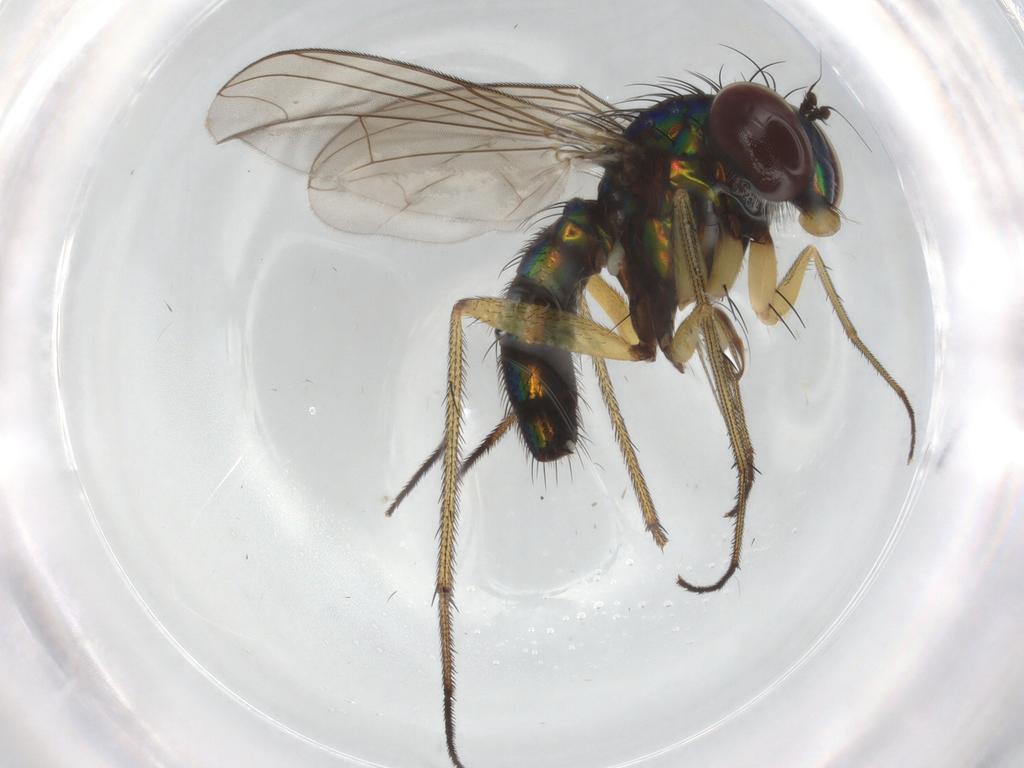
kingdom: Animalia
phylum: Arthropoda
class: Insecta
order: Diptera
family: Dolichopodidae
